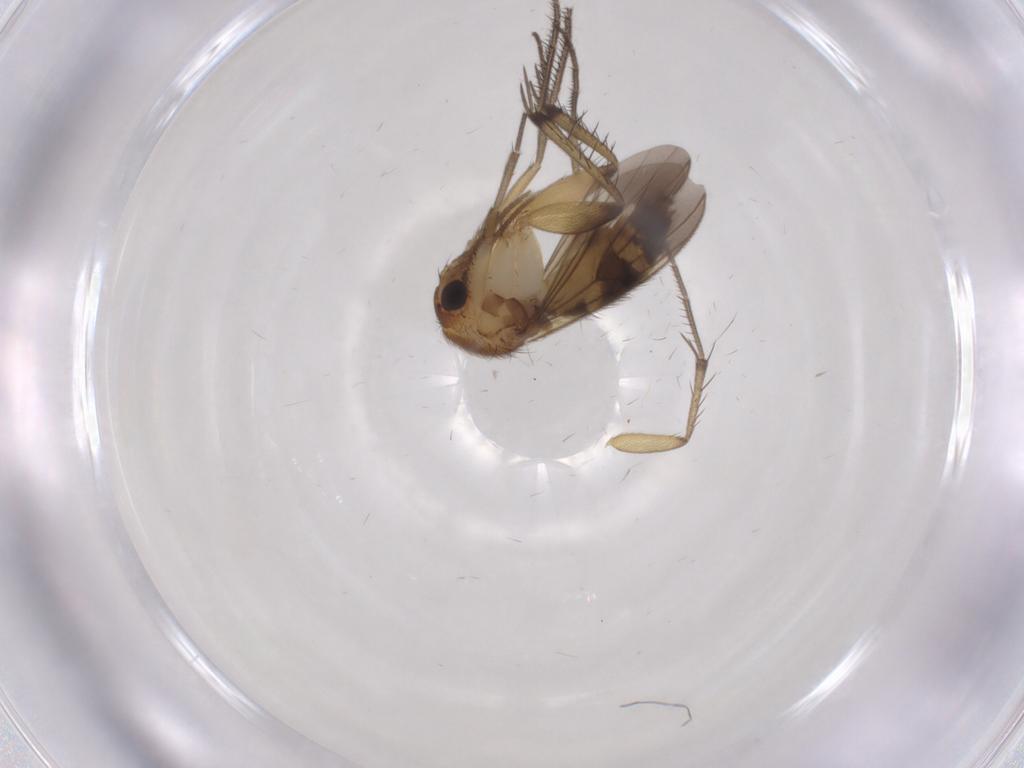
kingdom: Animalia
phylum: Arthropoda
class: Insecta
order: Diptera
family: Mycetophilidae
